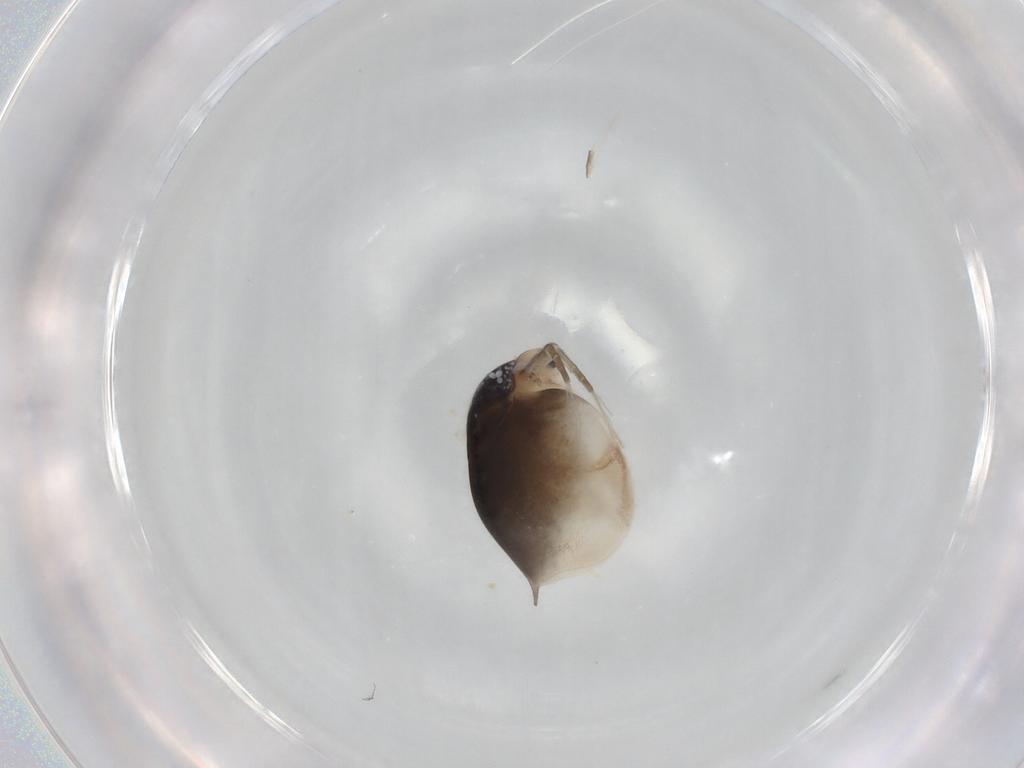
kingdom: Animalia
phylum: Arthropoda
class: Branchiopoda
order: Diplostraca
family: Daphniidae
